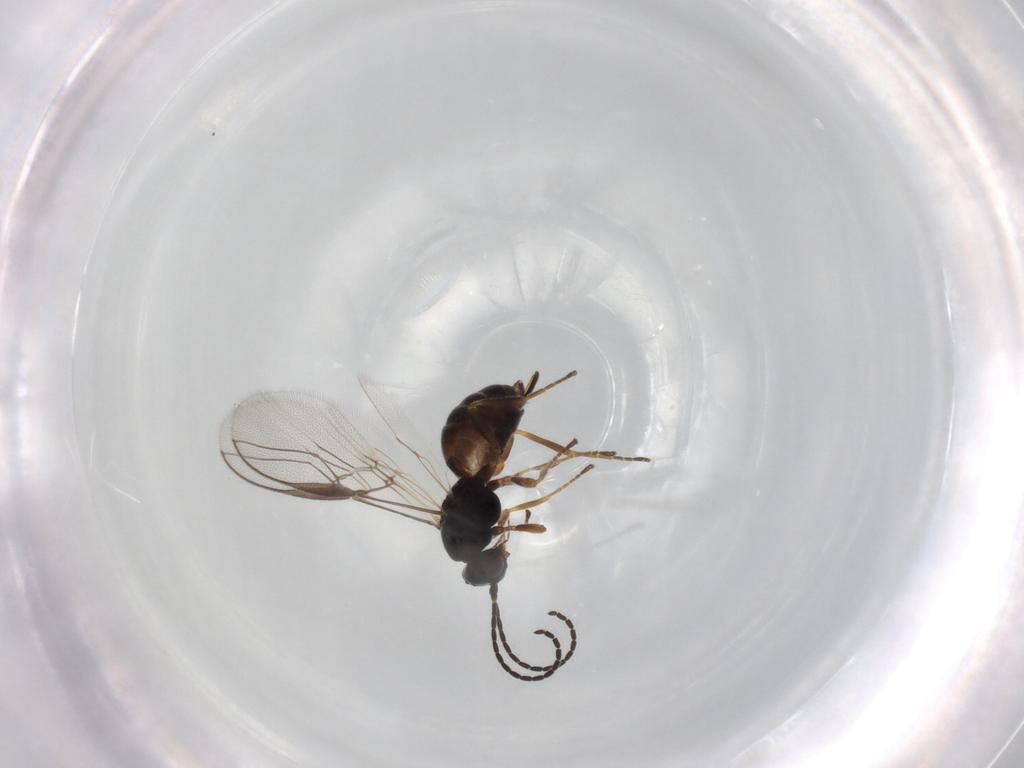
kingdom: Animalia
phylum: Arthropoda
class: Insecta
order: Hymenoptera
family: Braconidae
